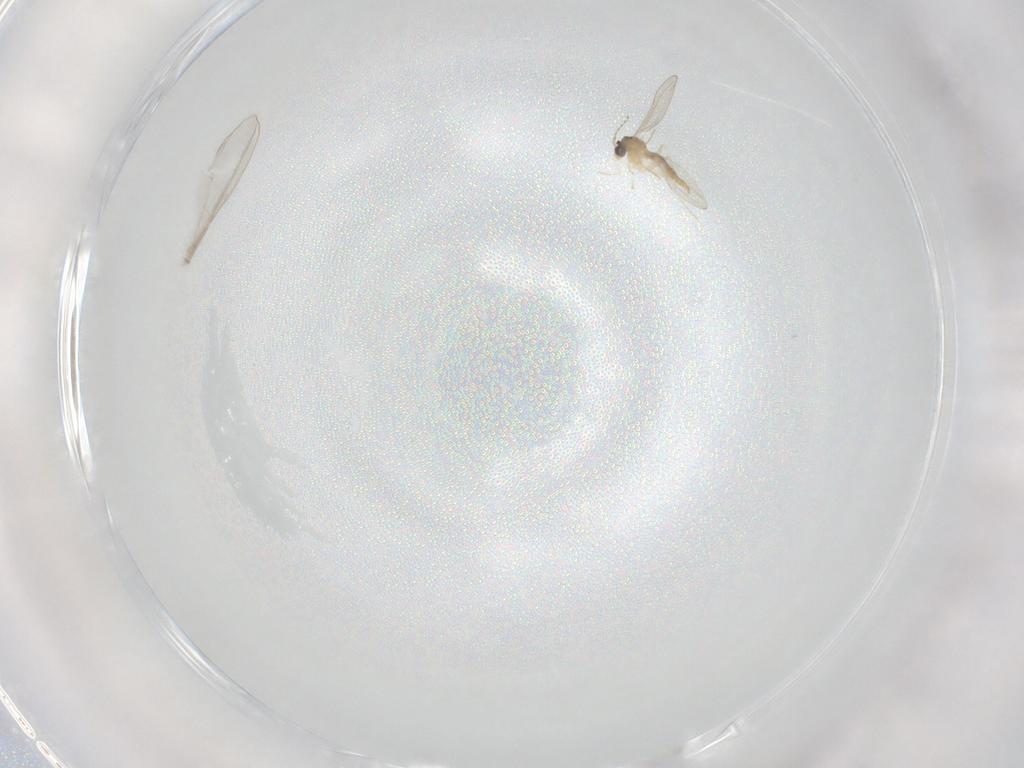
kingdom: Animalia
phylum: Arthropoda
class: Insecta
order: Diptera
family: Cecidomyiidae
